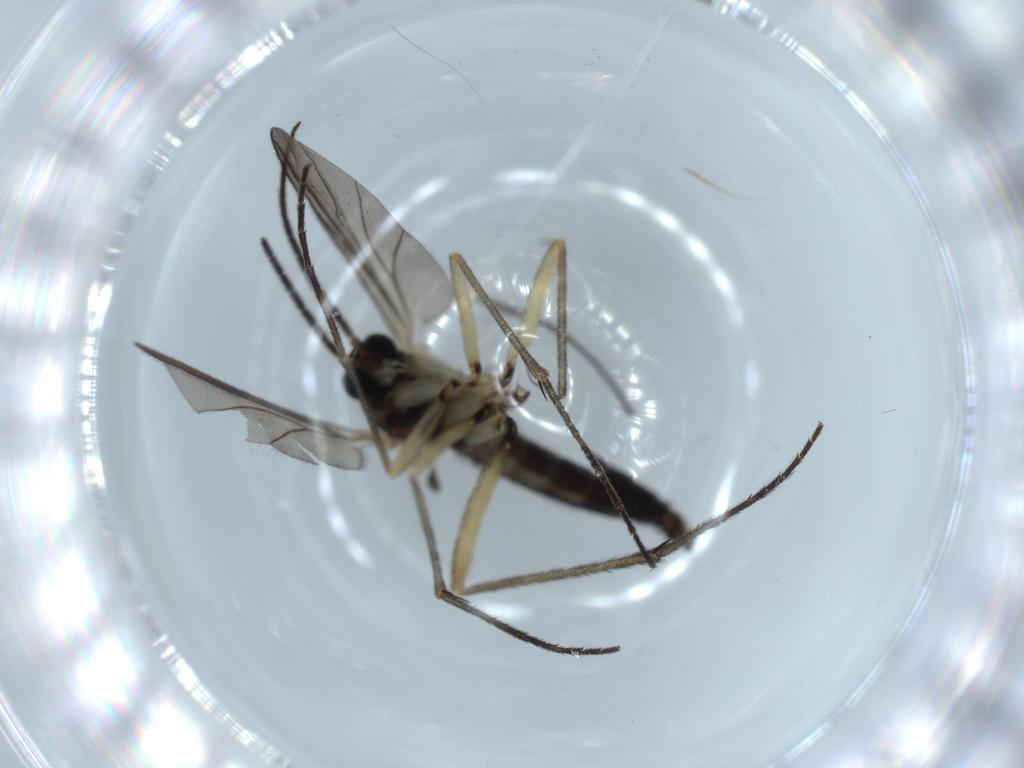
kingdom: Animalia
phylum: Arthropoda
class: Insecta
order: Diptera
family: Sciaridae
